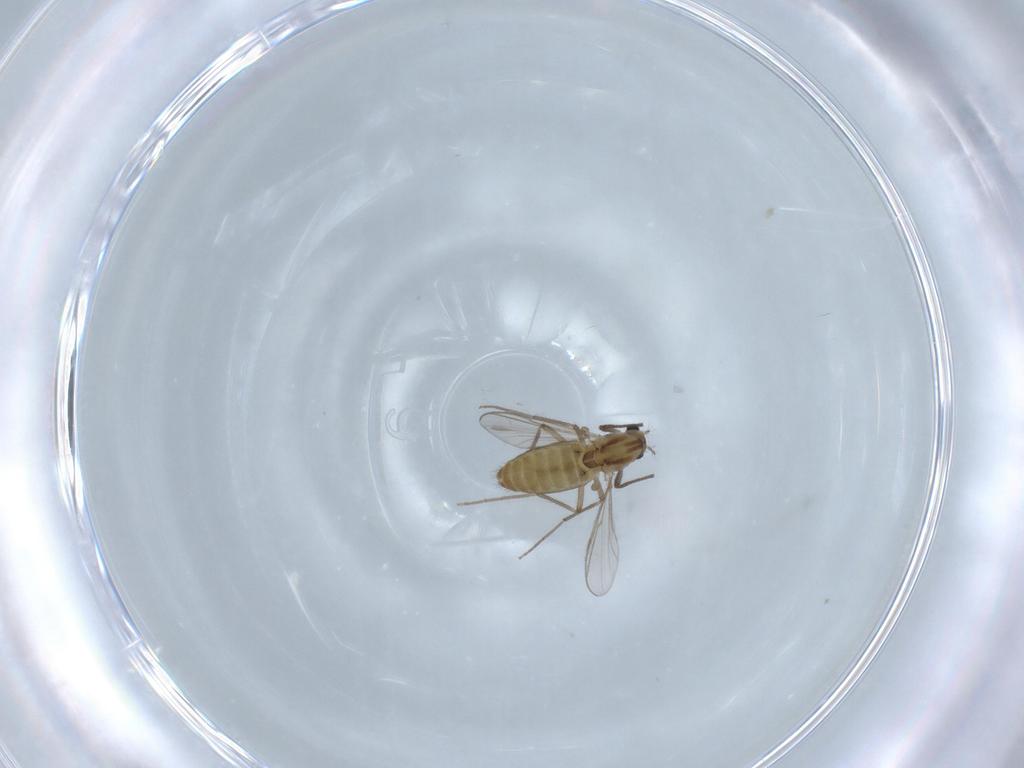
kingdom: Animalia
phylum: Arthropoda
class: Insecta
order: Diptera
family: Chironomidae
